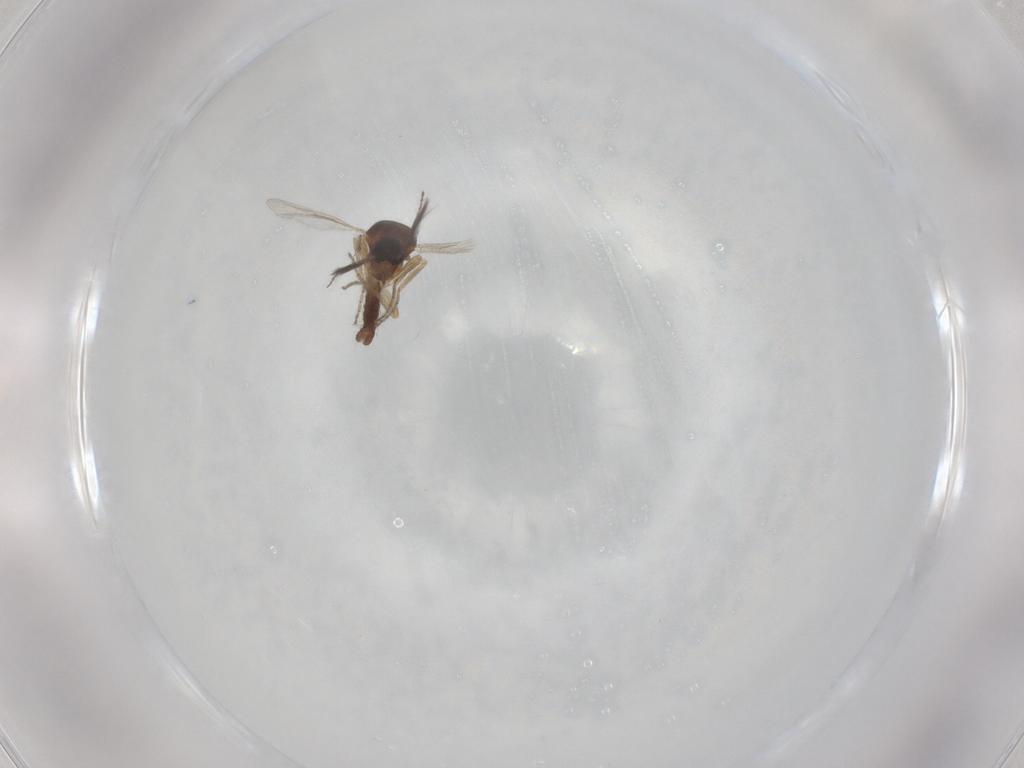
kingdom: Animalia
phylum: Arthropoda
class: Insecta
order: Diptera
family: Ceratopogonidae
